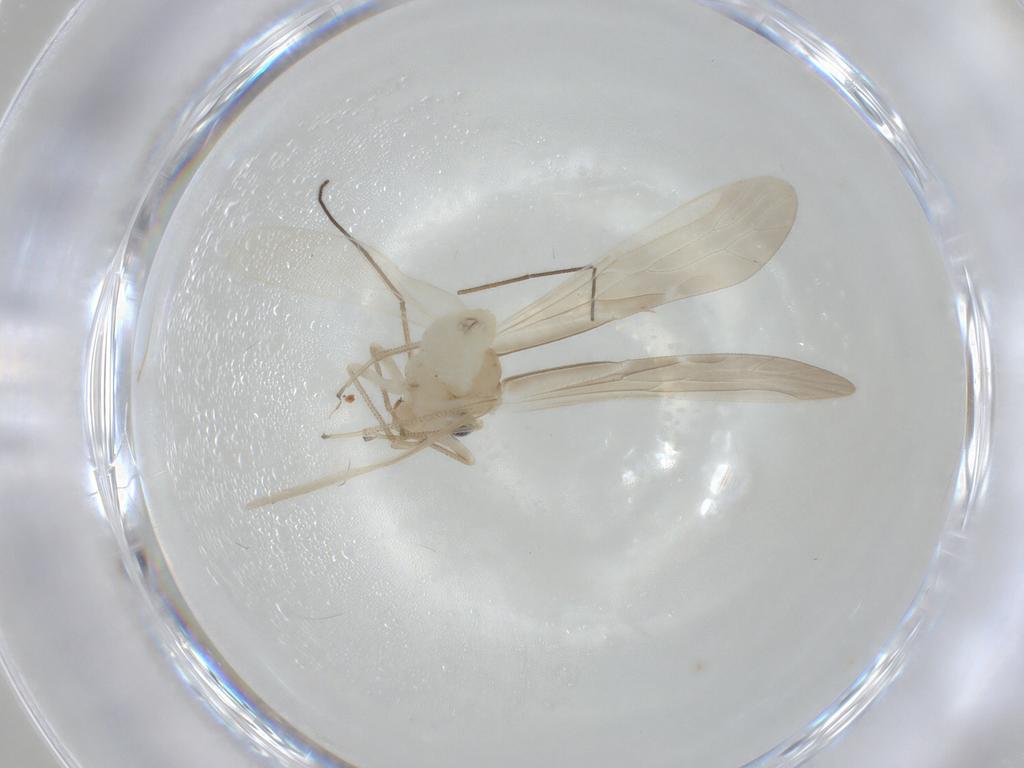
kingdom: Animalia
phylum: Arthropoda
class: Insecta
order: Psocodea
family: Caeciliusidae
